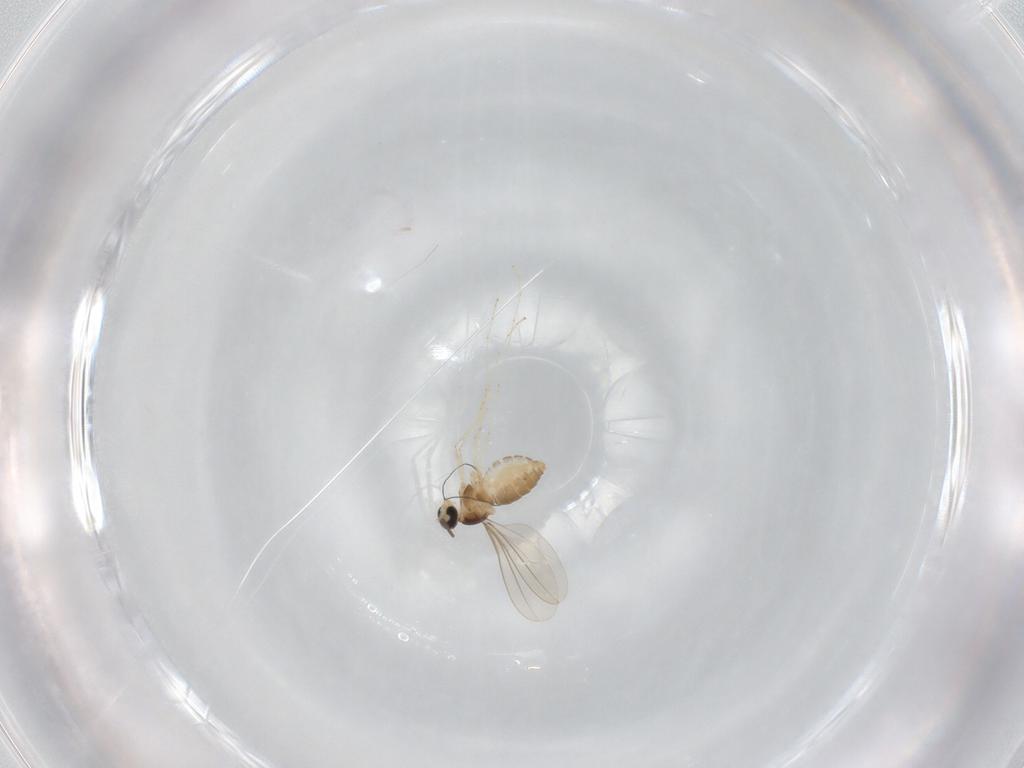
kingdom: Animalia
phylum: Arthropoda
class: Insecta
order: Diptera
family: Cecidomyiidae
